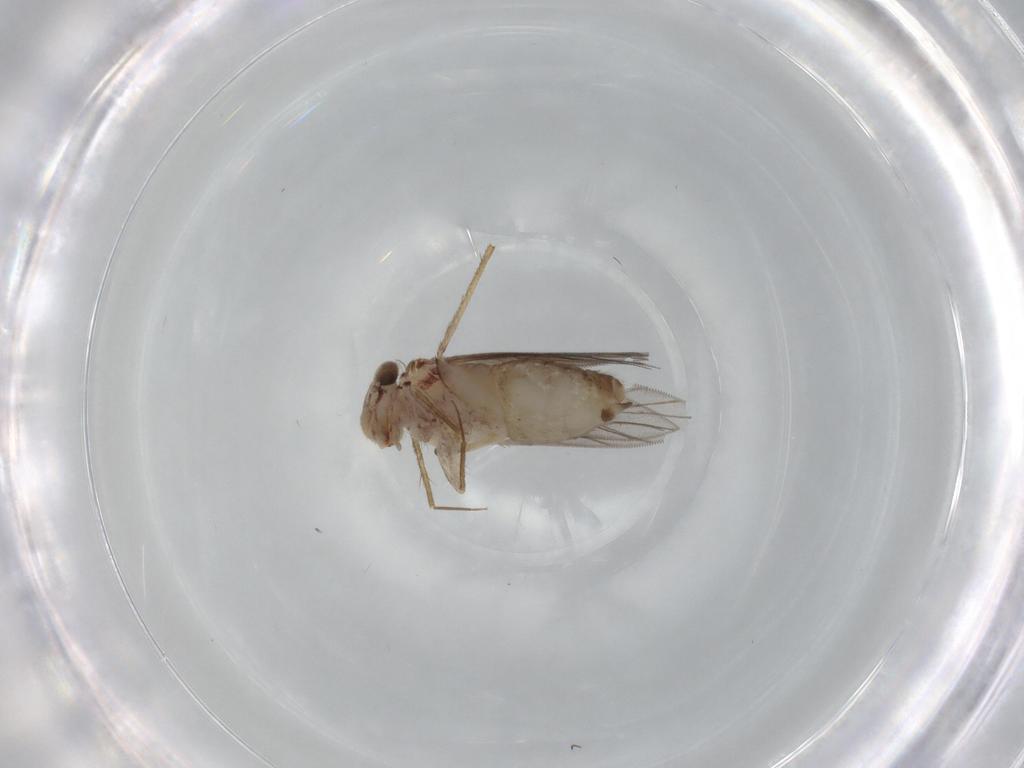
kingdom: Animalia
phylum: Arthropoda
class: Insecta
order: Psocodea
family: Lepidopsocidae
